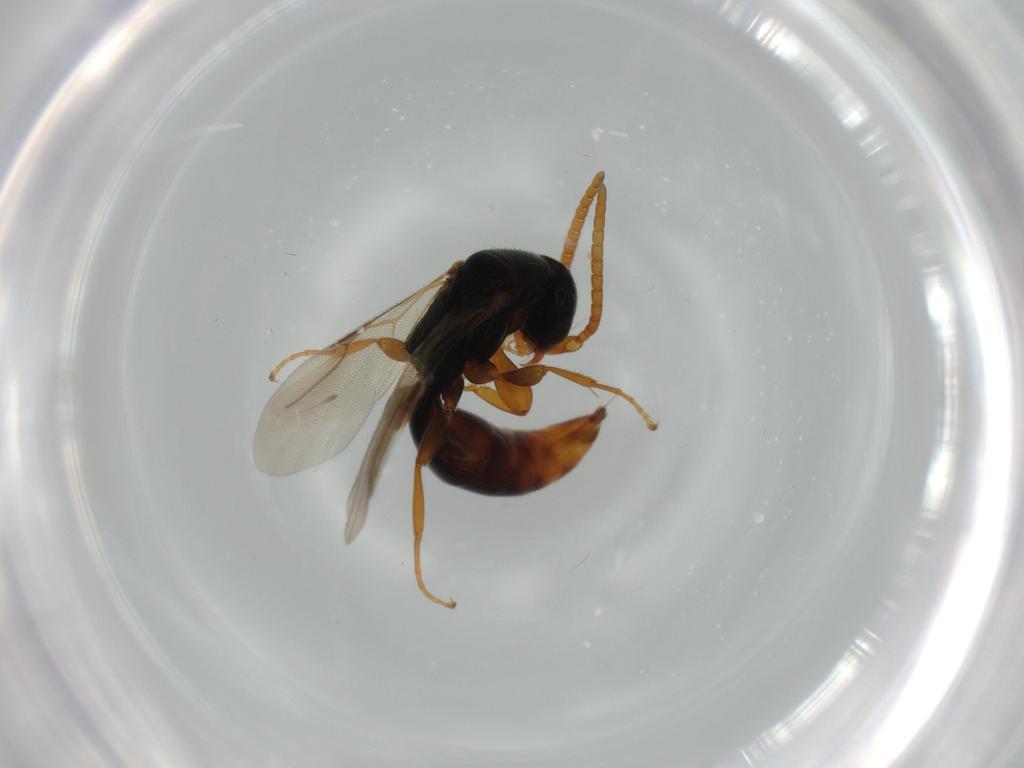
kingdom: Animalia
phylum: Arthropoda
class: Insecta
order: Hymenoptera
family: Bethylidae
